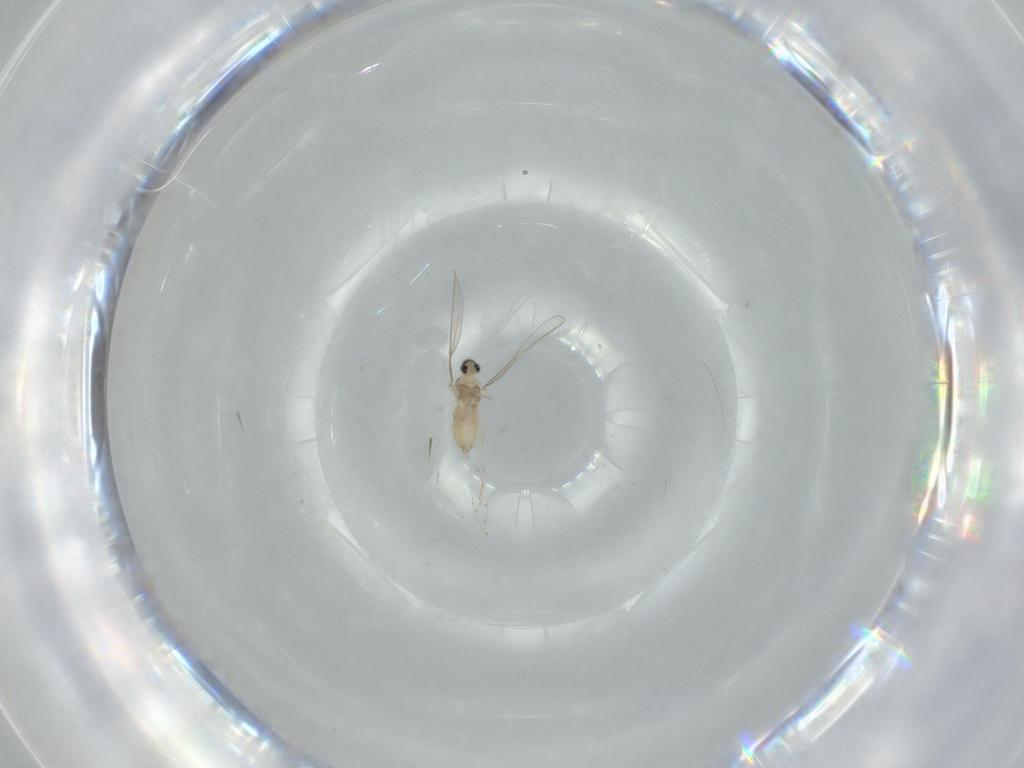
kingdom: Animalia
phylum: Arthropoda
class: Insecta
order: Diptera
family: Cecidomyiidae
